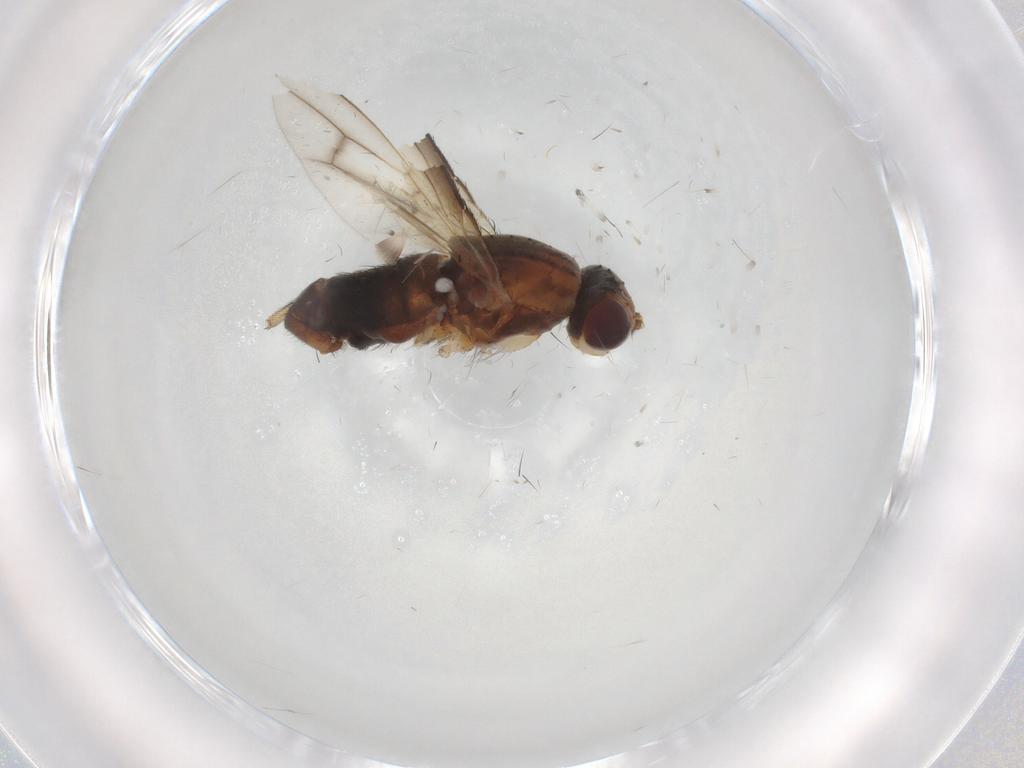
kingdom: Animalia
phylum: Arthropoda
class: Insecta
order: Diptera
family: Heleomyzidae
